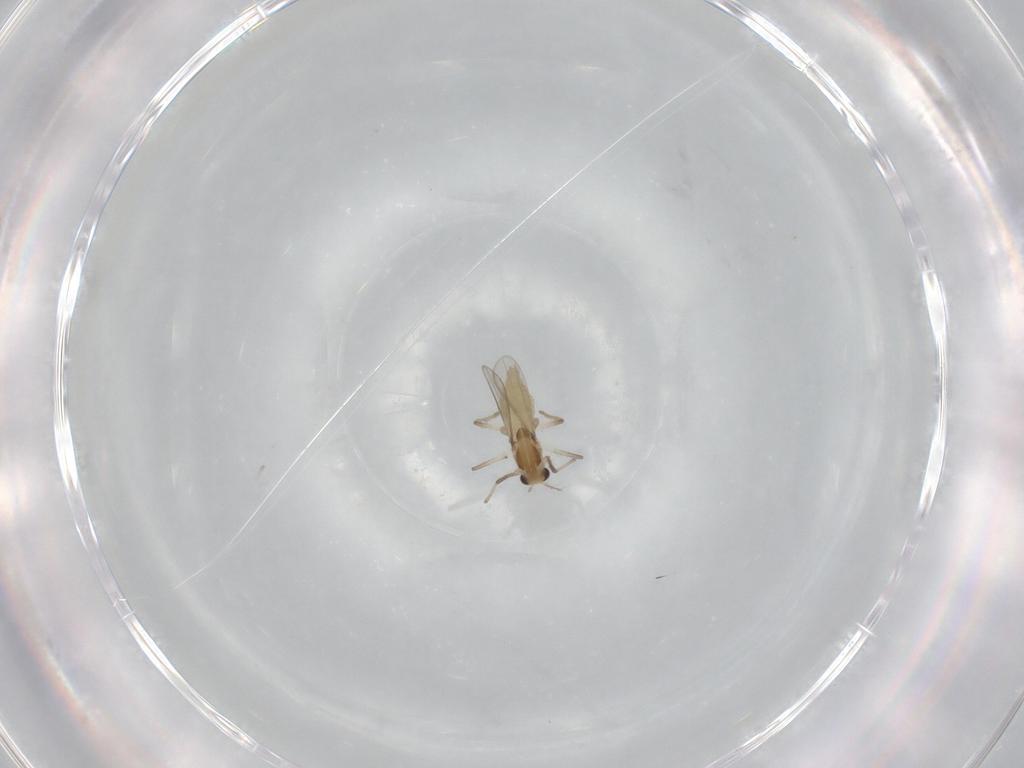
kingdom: Animalia
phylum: Arthropoda
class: Insecta
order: Diptera
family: Chironomidae
